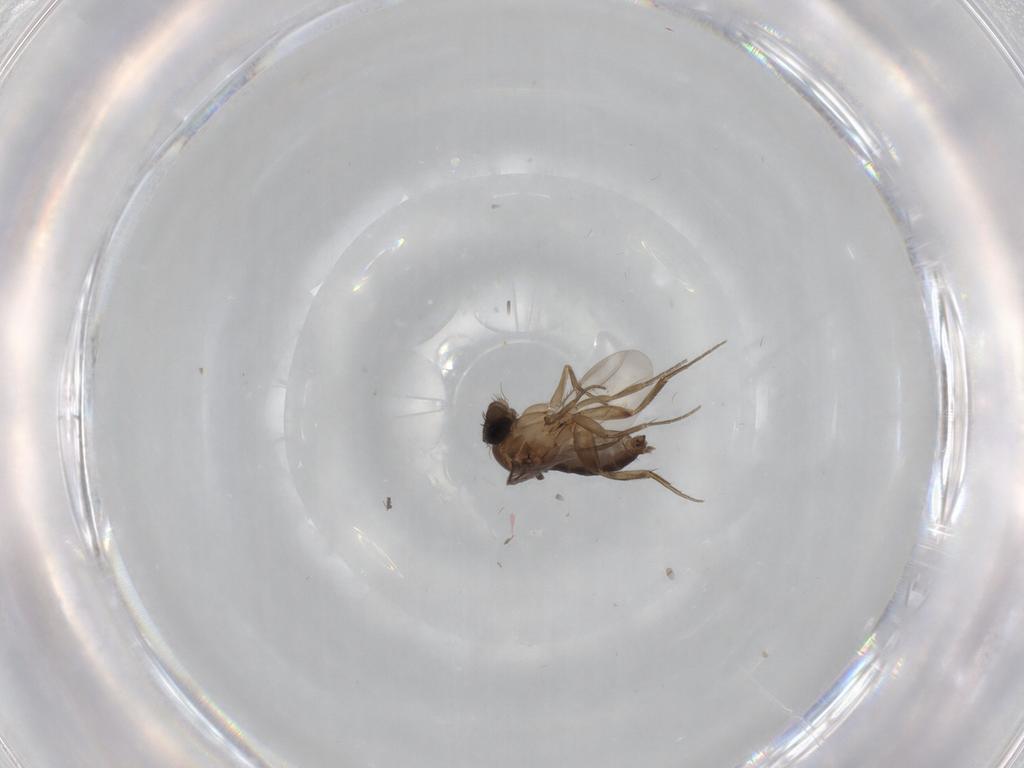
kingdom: Animalia
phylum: Arthropoda
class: Insecta
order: Diptera
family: Phoridae
